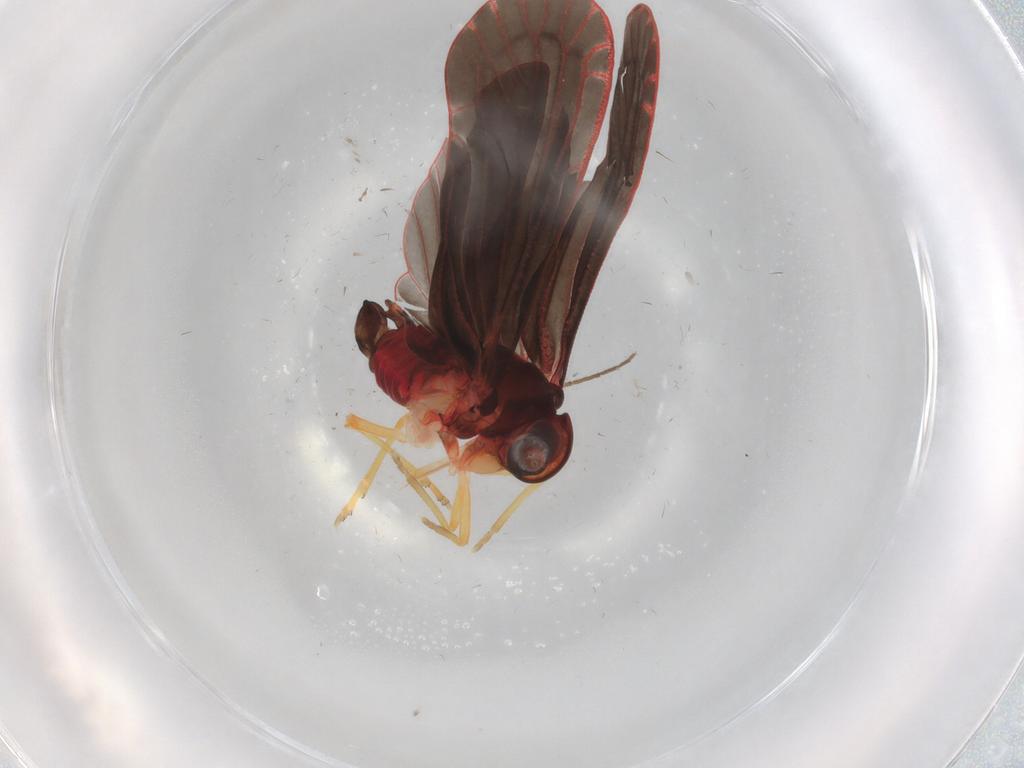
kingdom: Animalia
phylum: Arthropoda
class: Insecta
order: Hemiptera
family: Derbidae
